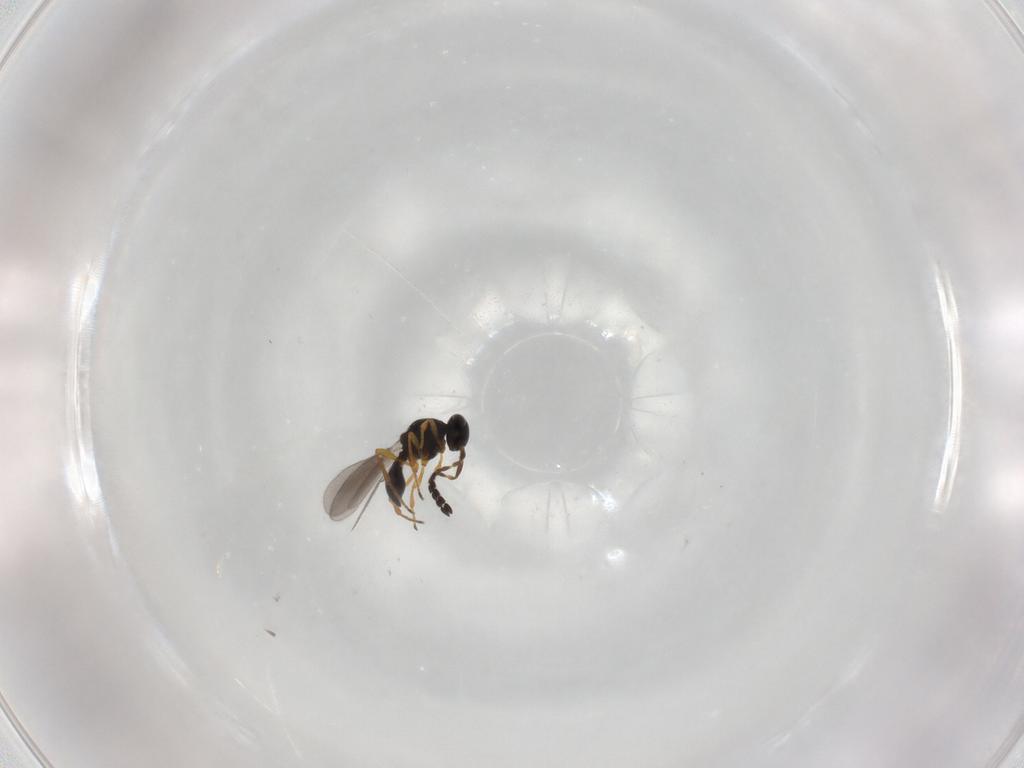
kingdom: Animalia
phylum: Arthropoda
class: Insecta
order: Hymenoptera
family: Platygastridae
